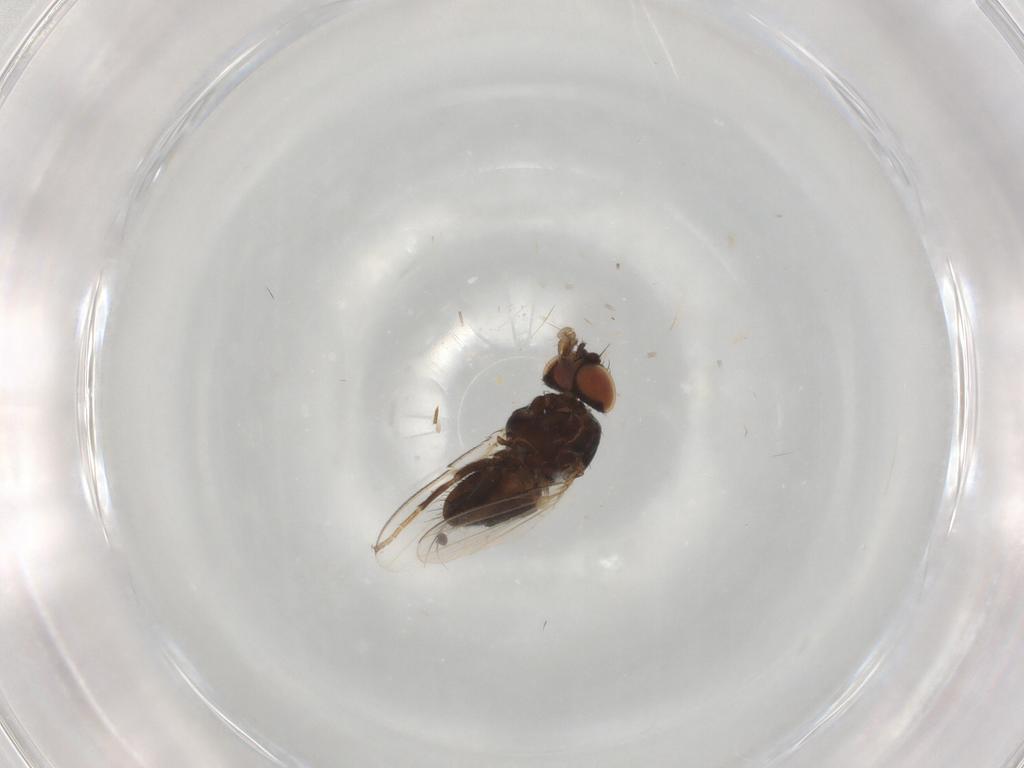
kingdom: Animalia
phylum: Arthropoda
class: Insecta
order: Diptera
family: Milichiidae
